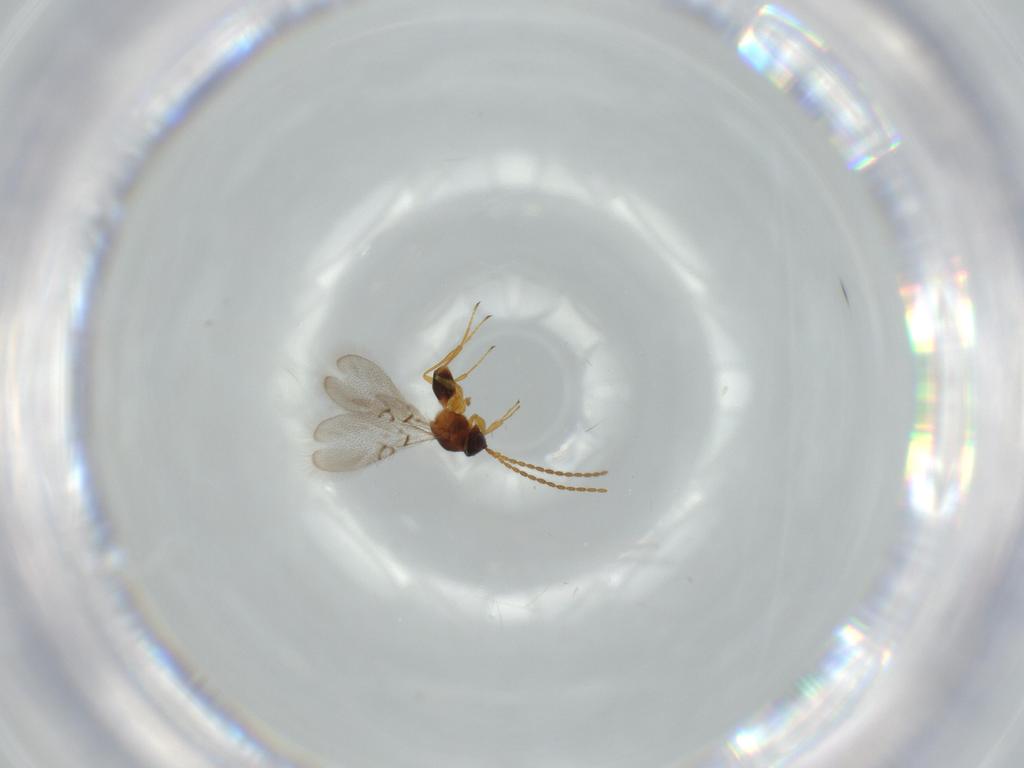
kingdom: Animalia
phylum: Arthropoda
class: Insecta
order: Hymenoptera
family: Figitidae
